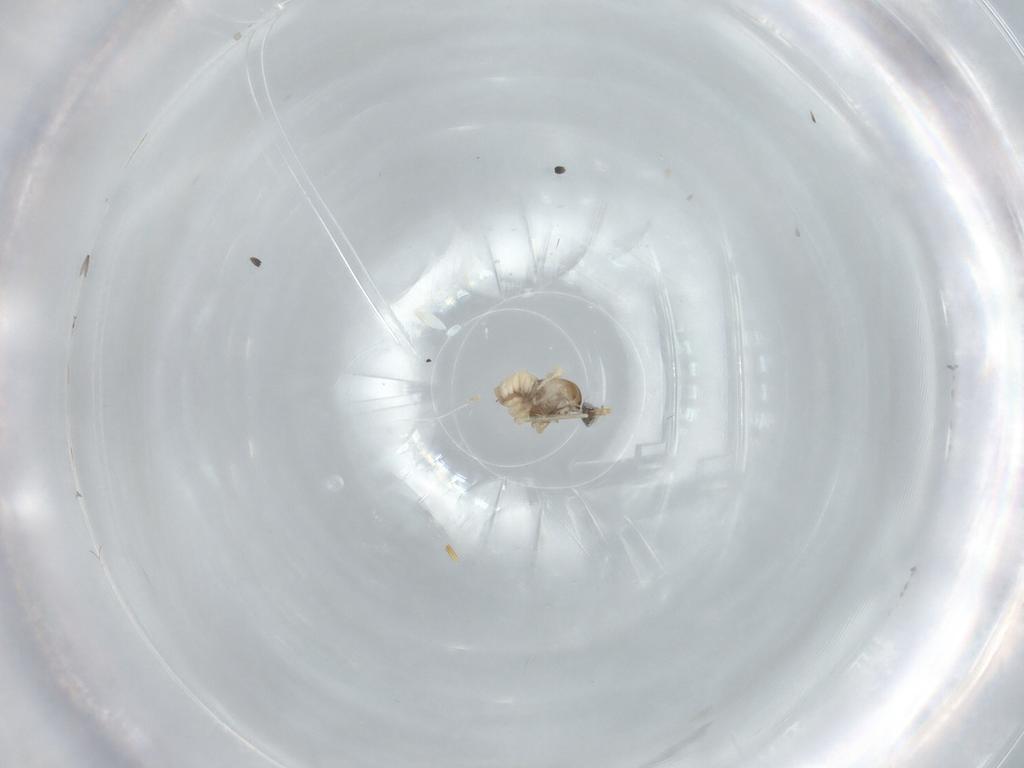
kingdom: Animalia
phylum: Arthropoda
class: Insecta
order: Diptera
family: Cecidomyiidae
